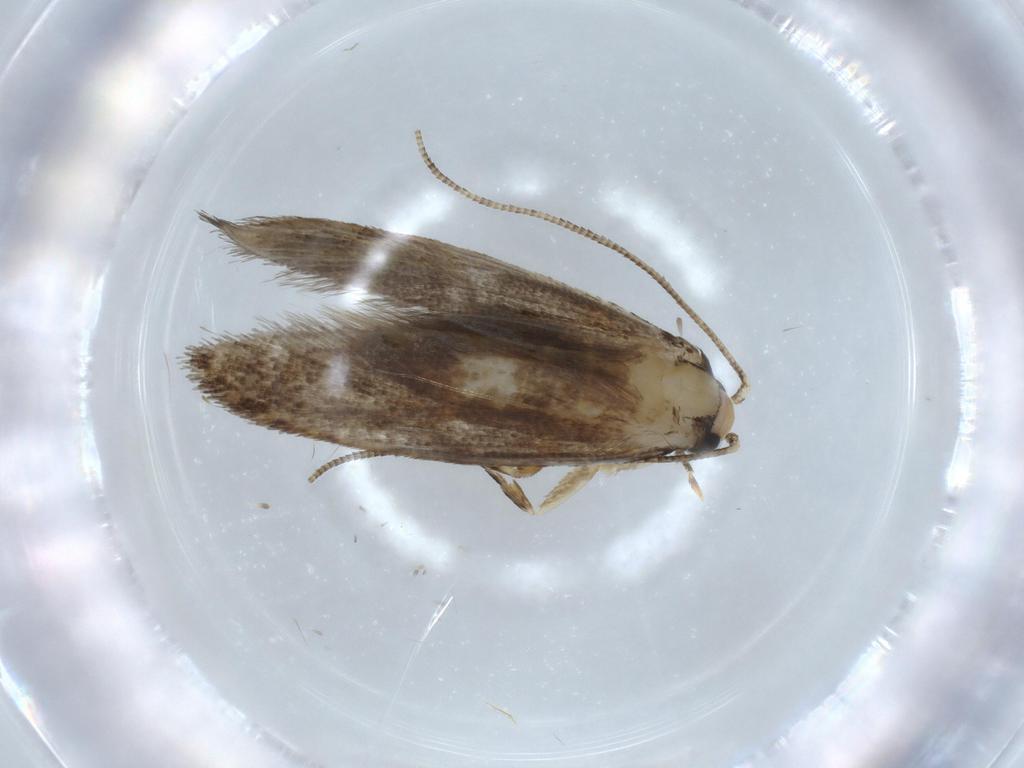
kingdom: Animalia
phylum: Arthropoda
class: Insecta
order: Lepidoptera
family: Tineidae
